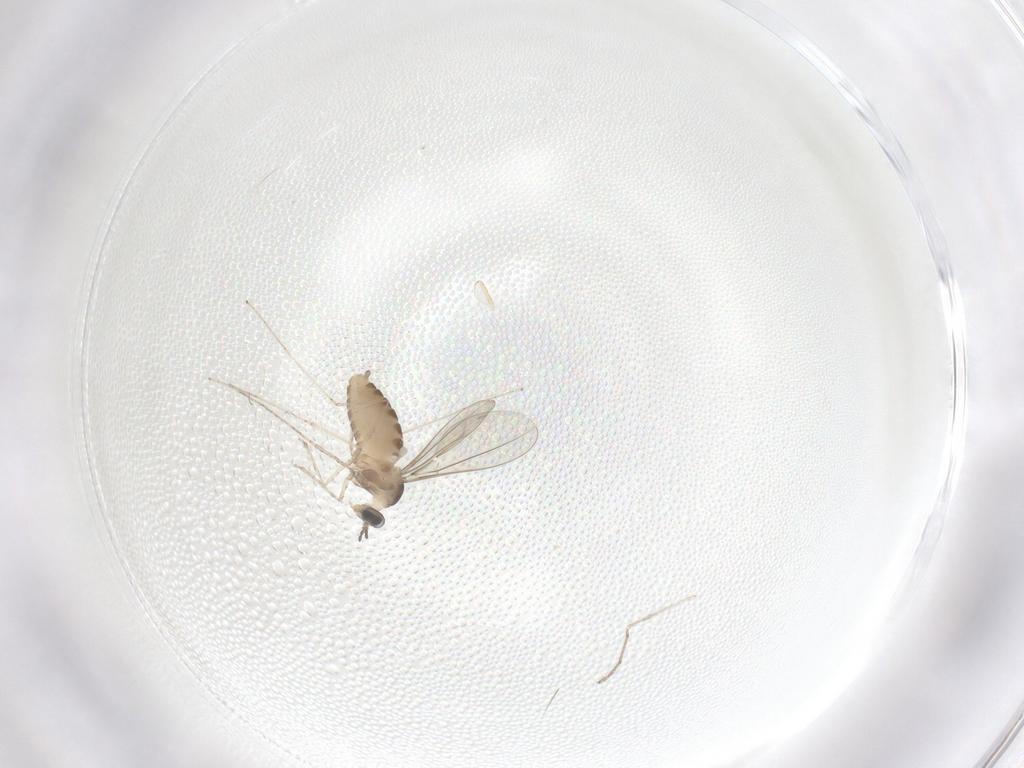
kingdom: Animalia
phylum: Arthropoda
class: Insecta
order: Diptera
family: Cecidomyiidae
